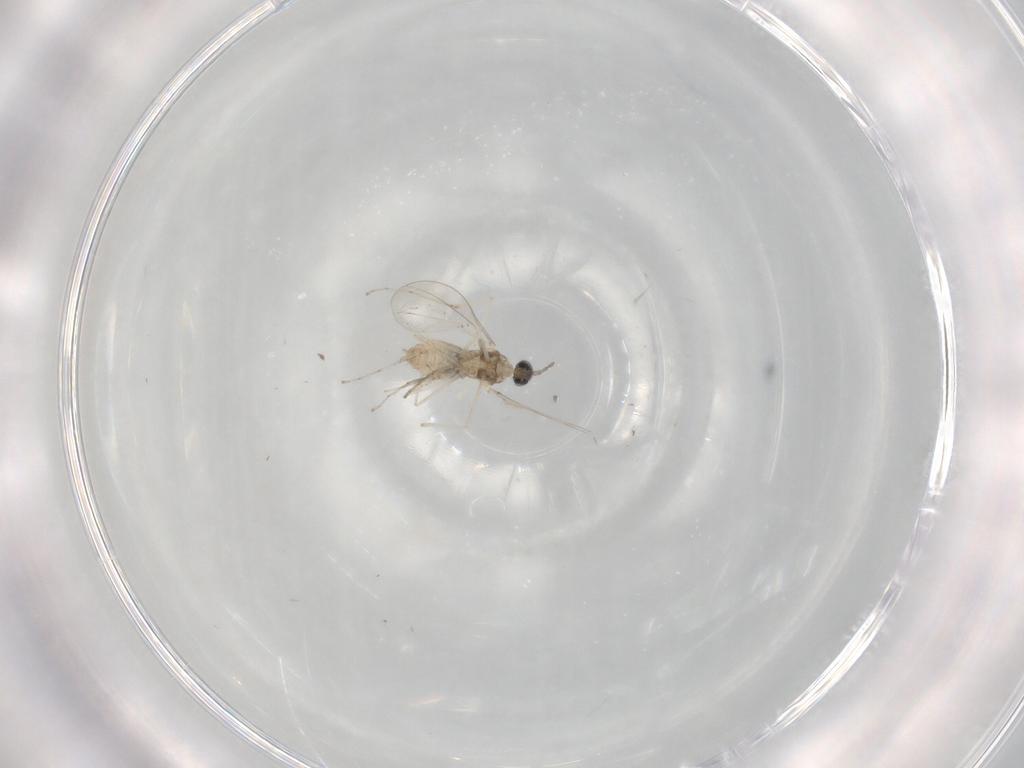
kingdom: Animalia
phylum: Arthropoda
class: Insecta
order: Diptera
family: Cecidomyiidae
